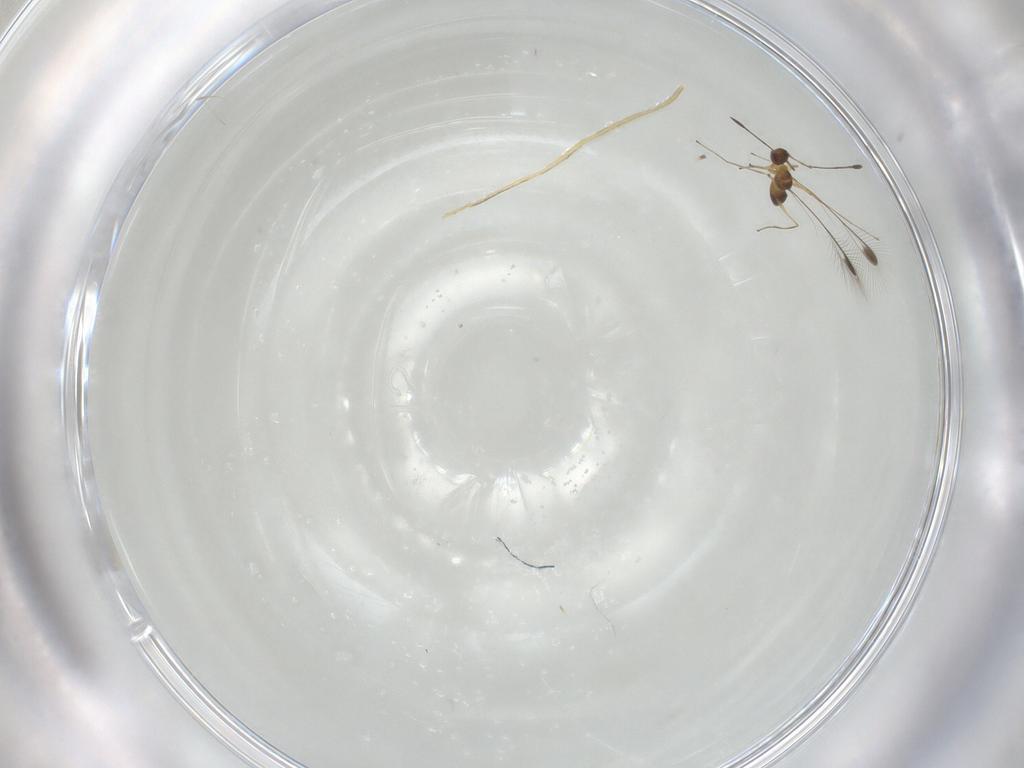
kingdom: Animalia
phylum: Arthropoda
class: Insecta
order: Hymenoptera
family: Mymaridae
